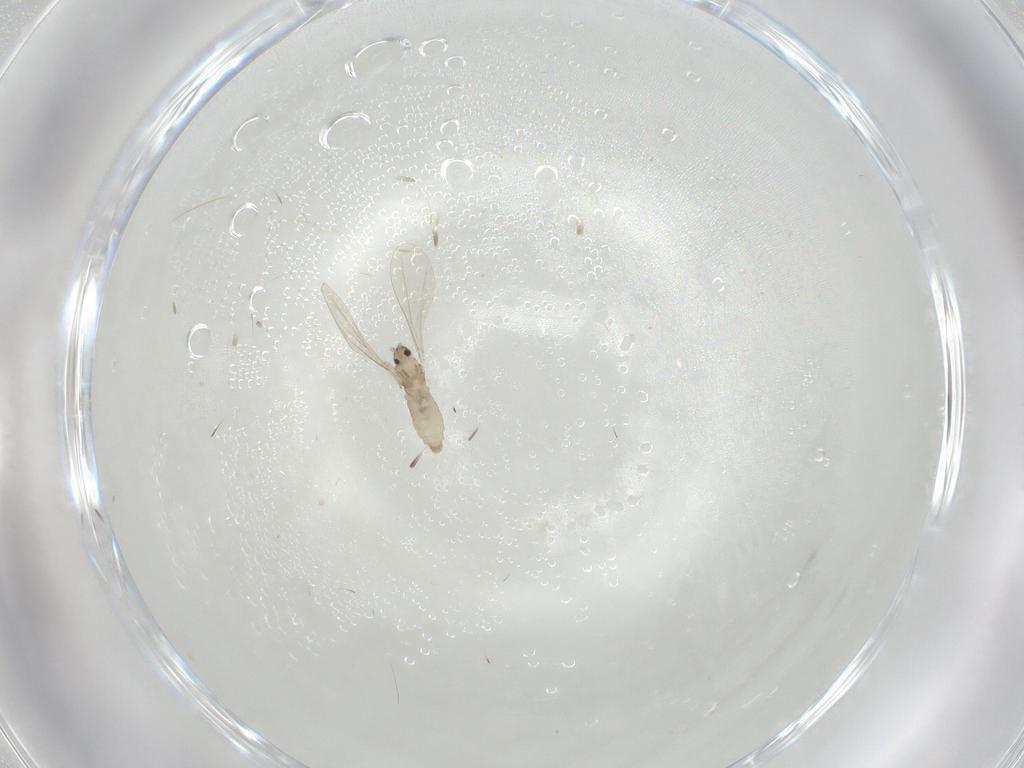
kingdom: Animalia
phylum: Arthropoda
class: Insecta
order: Diptera
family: Cecidomyiidae
